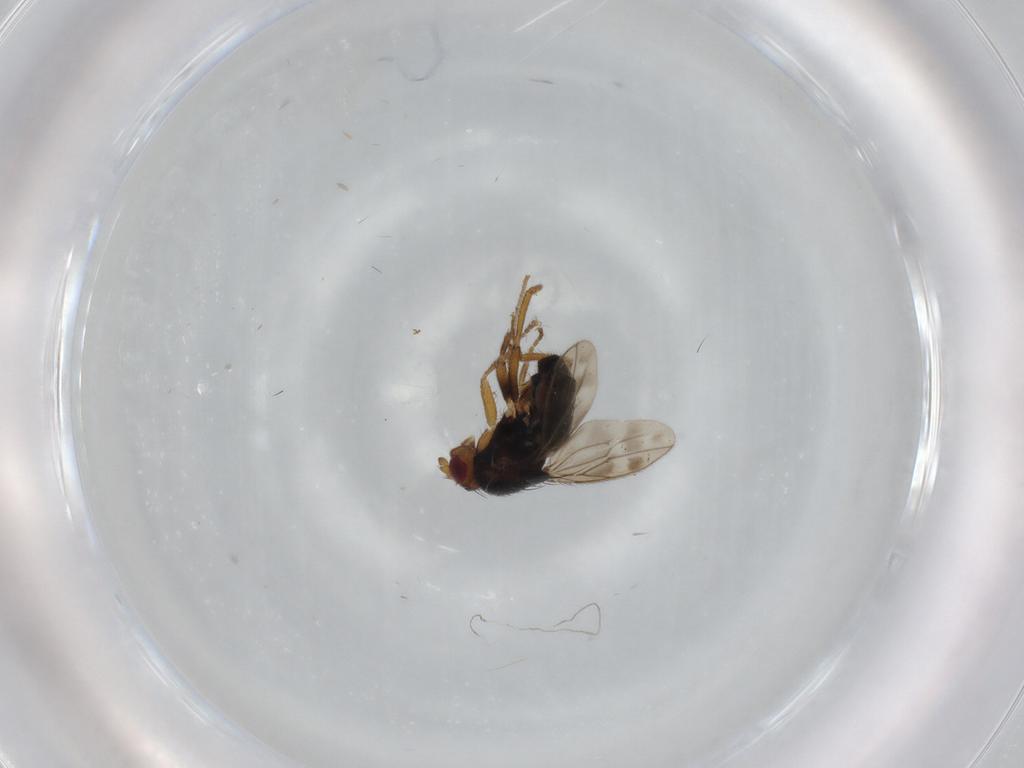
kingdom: Animalia
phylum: Arthropoda
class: Insecta
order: Diptera
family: Sphaeroceridae
